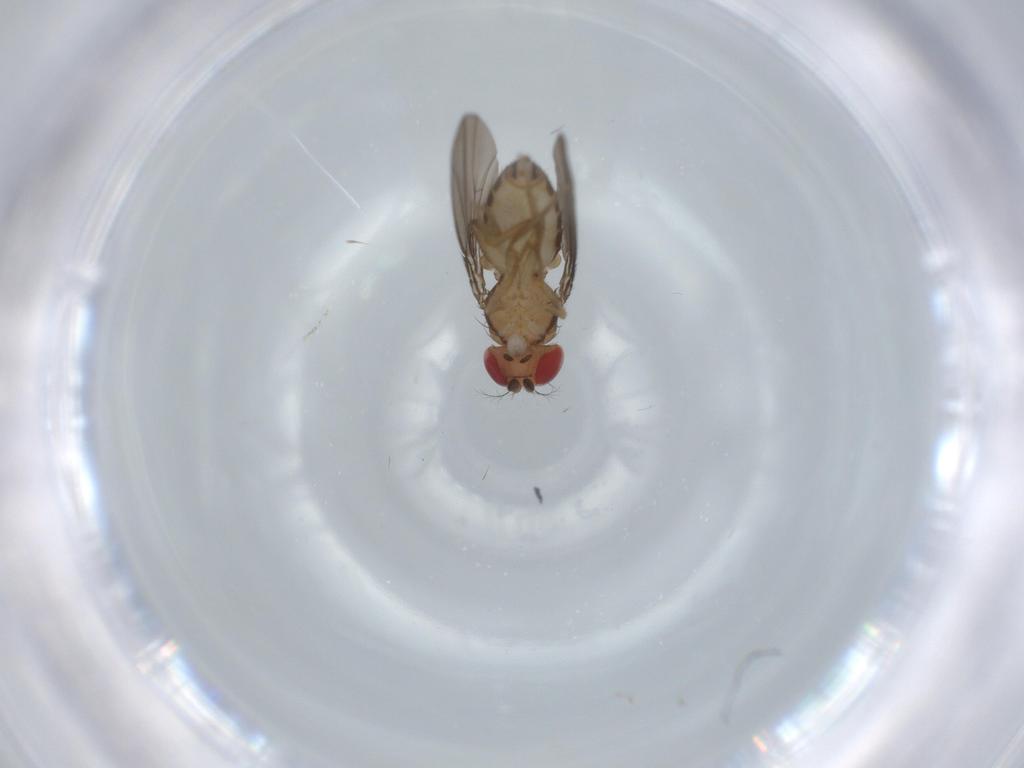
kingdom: Animalia
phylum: Arthropoda
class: Insecta
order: Diptera
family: Drosophilidae
